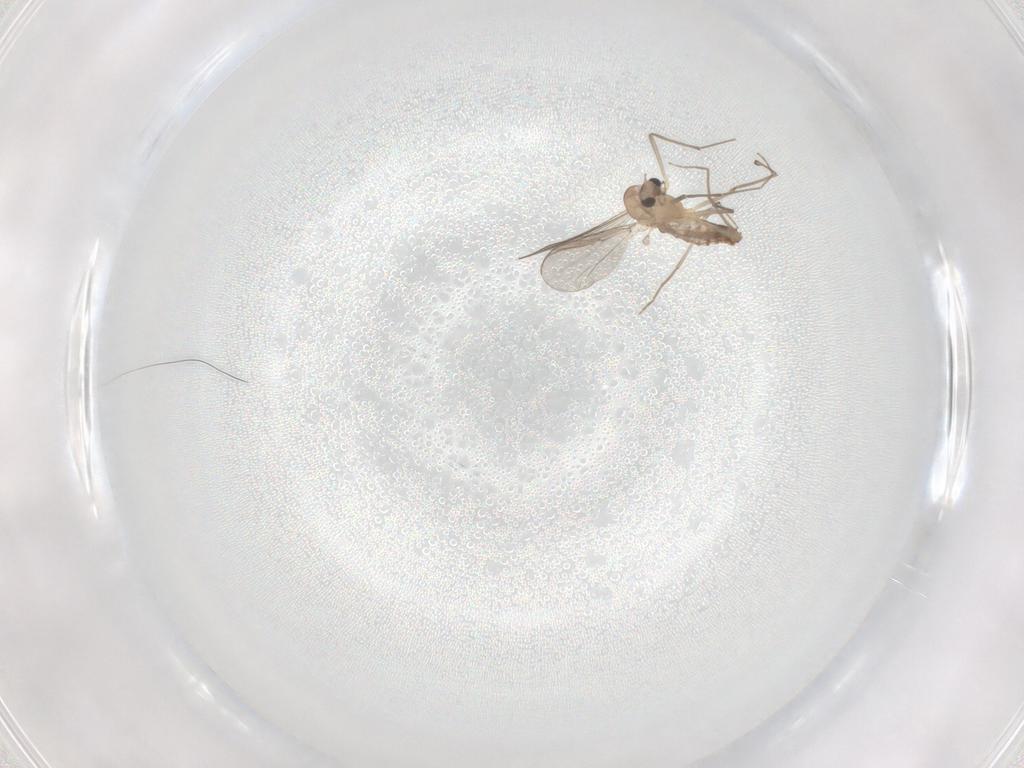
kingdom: Animalia
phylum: Arthropoda
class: Insecta
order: Diptera
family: Chironomidae
